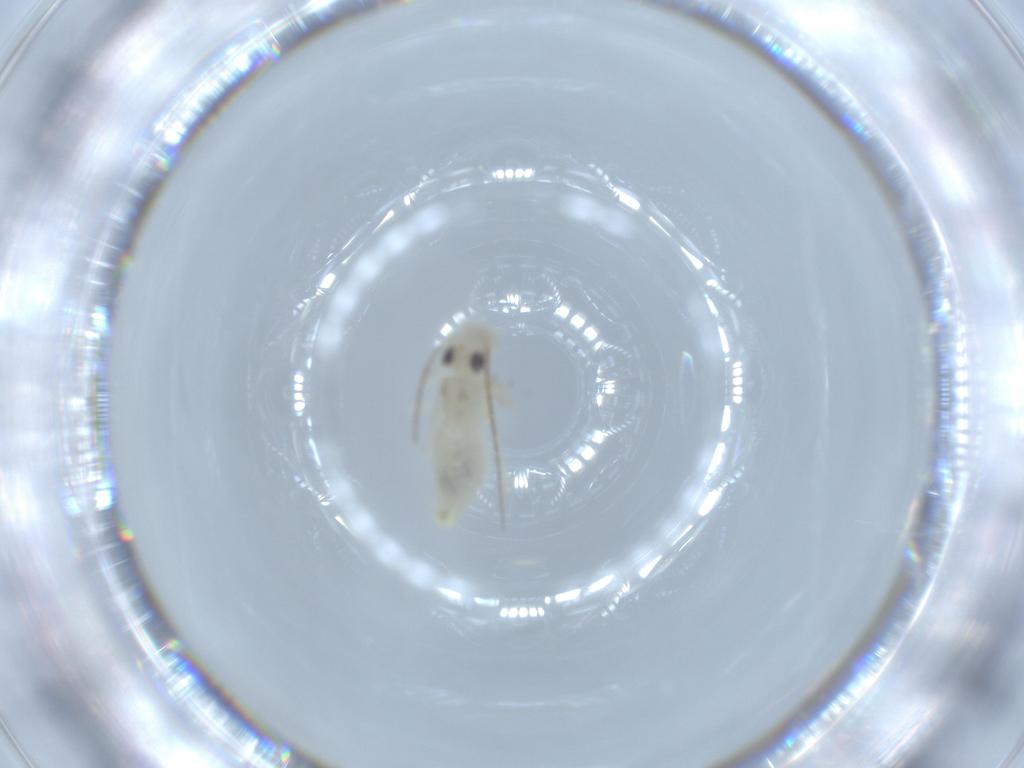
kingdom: Animalia
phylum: Arthropoda
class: Insecta
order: Psocodea
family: Caeciliusidae
